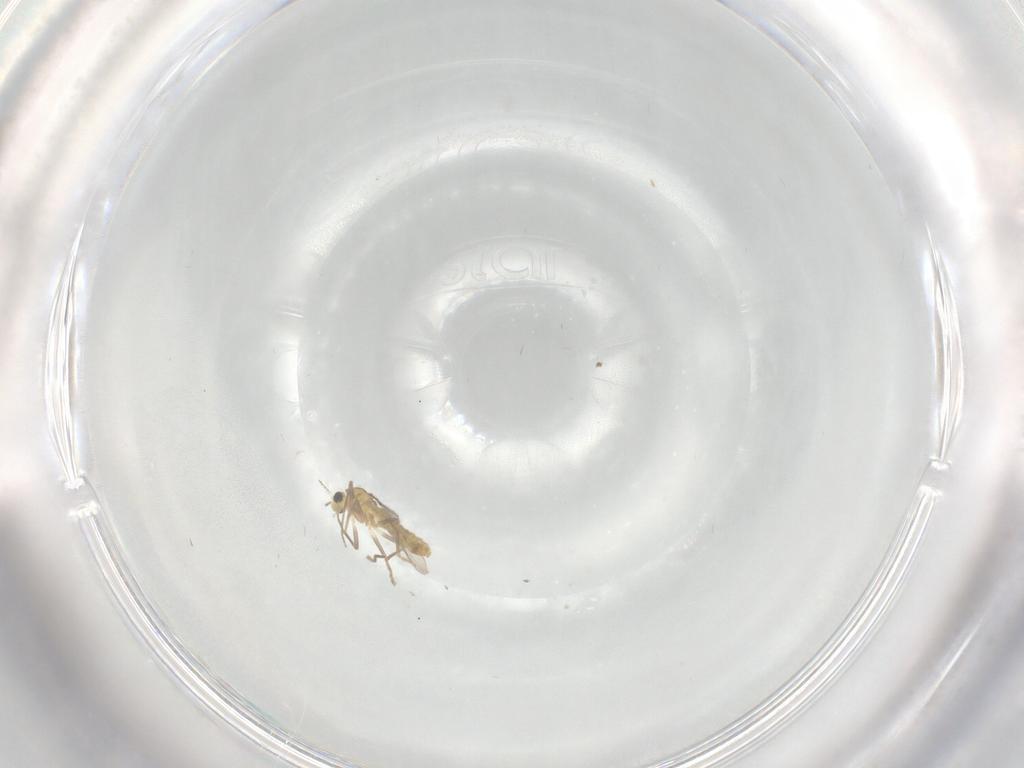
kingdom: Animalia
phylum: Arthropoda
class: Insecta
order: Diptera
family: Chironomidae
